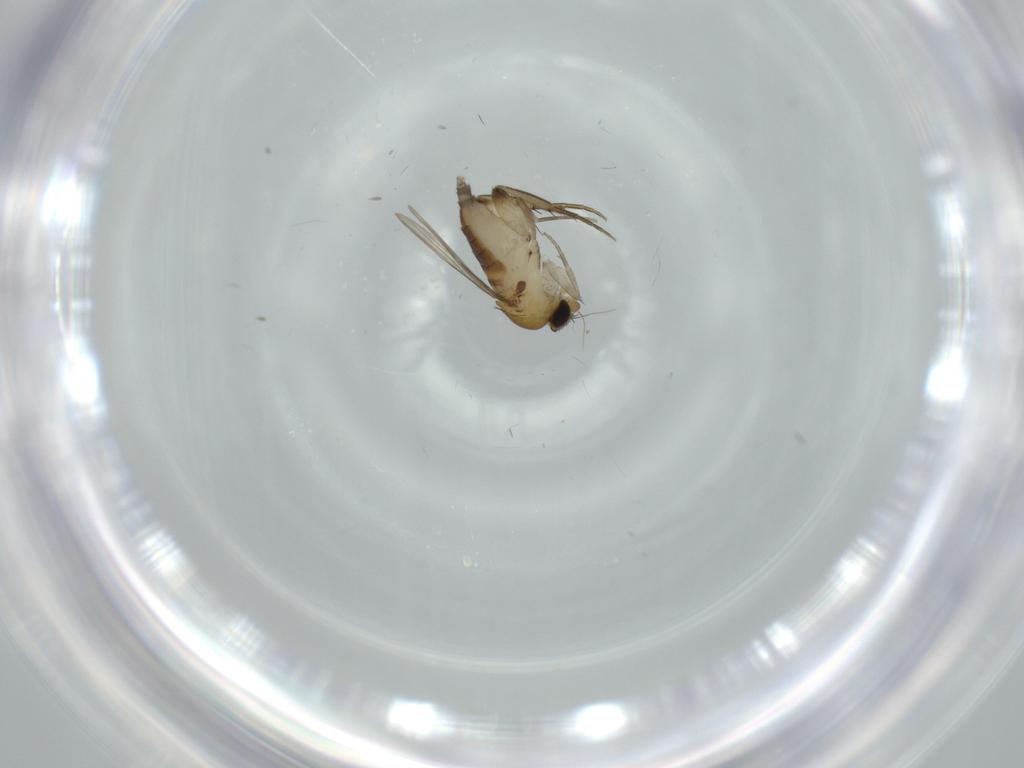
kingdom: Animalia
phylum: Arthropoda
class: Insecta
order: Diptera
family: Phoridae
